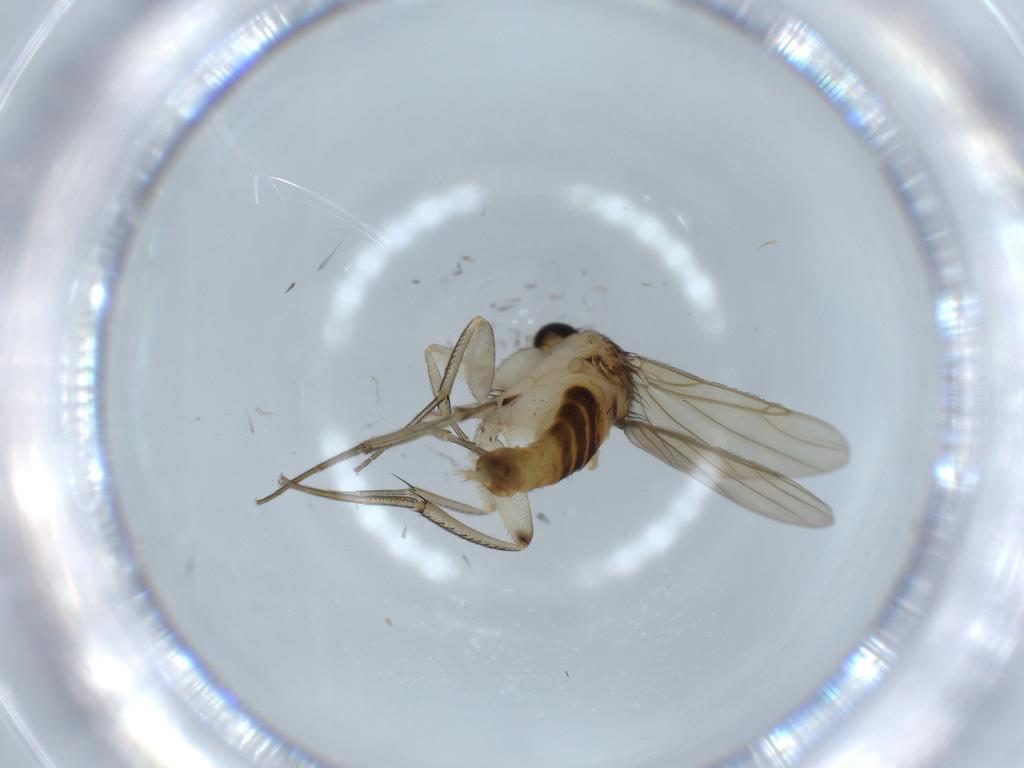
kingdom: Animalia
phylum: Arthropoda
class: Insecta
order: Diptera
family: Phoridae
